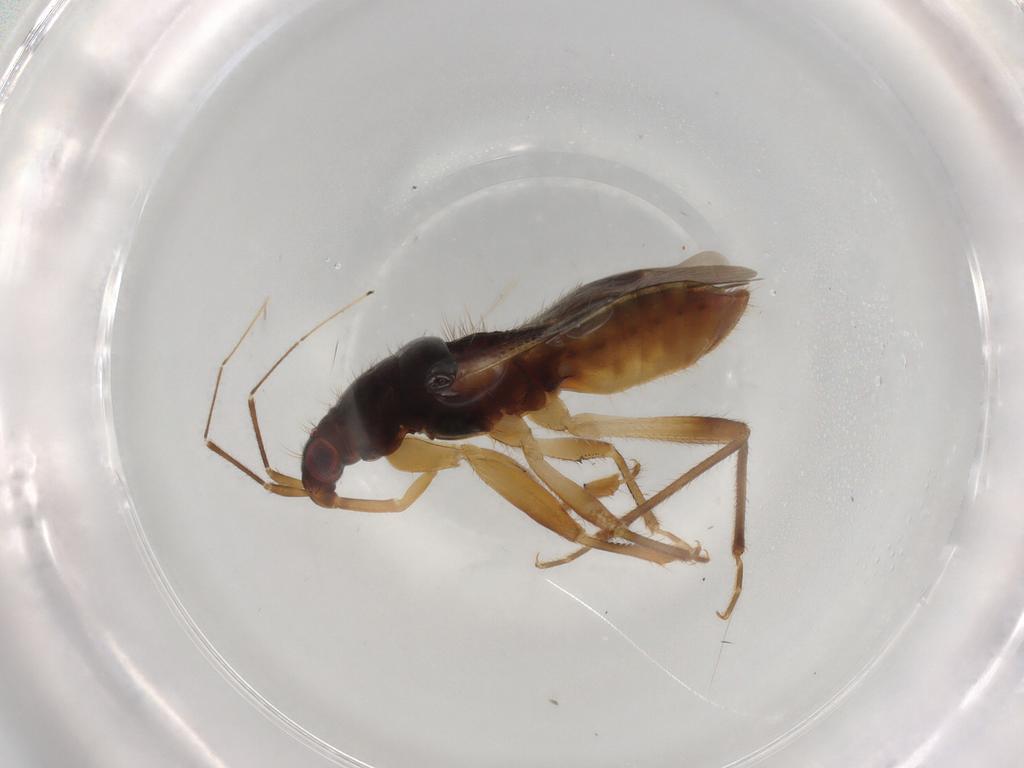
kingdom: Animalia
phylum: Arthropoda
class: Insecta
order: Hemiptera
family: Nabidae
